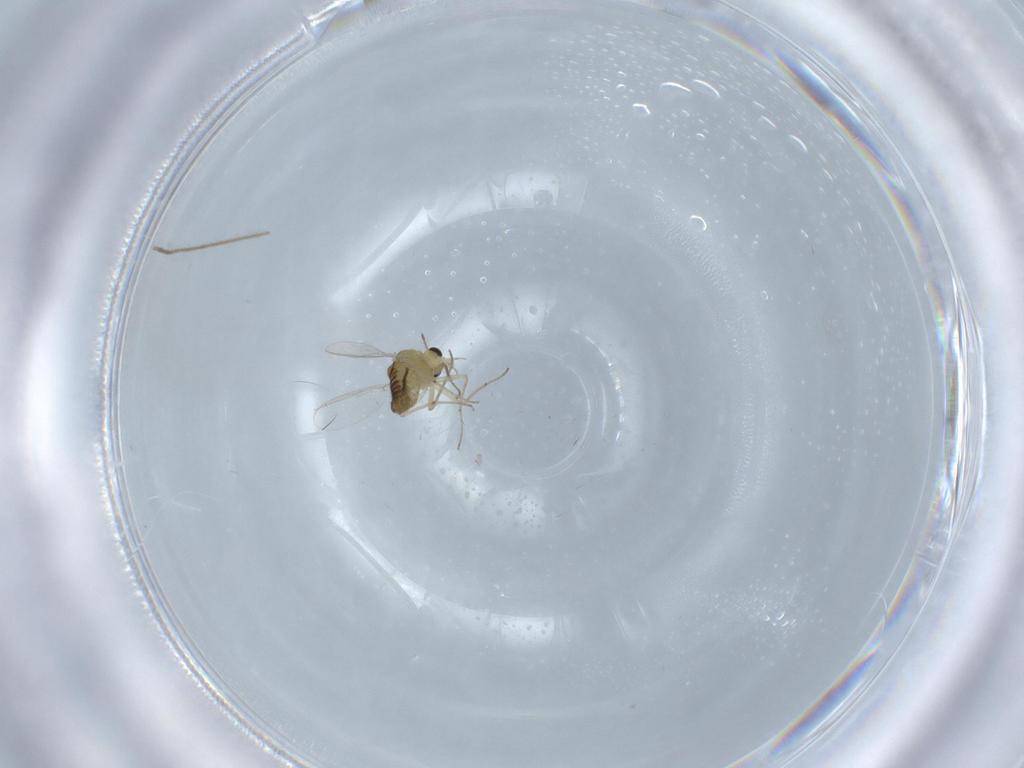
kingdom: Animalia
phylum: Arthropoda
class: Insecta
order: Diptera
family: Chironomidae
